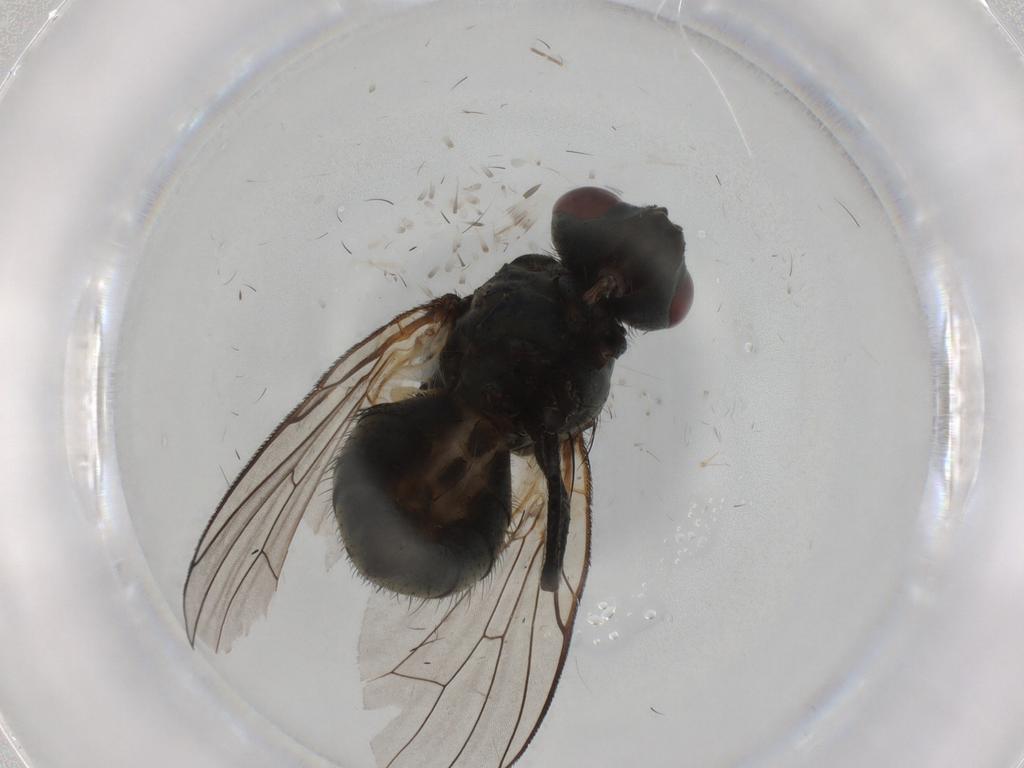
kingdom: Animalia
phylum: Arthropoda
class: Insecta
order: Diptera
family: Muscidae
